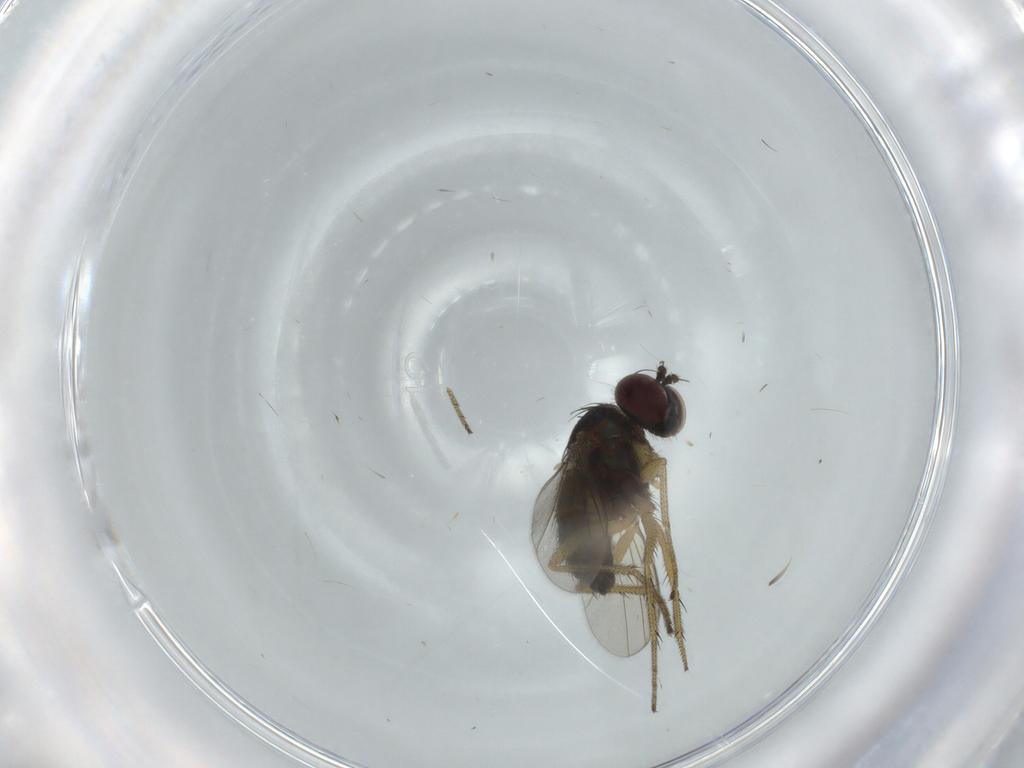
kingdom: Animalia
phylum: Arthropoda
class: Insecta
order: Diptera
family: Dolichopodidae
